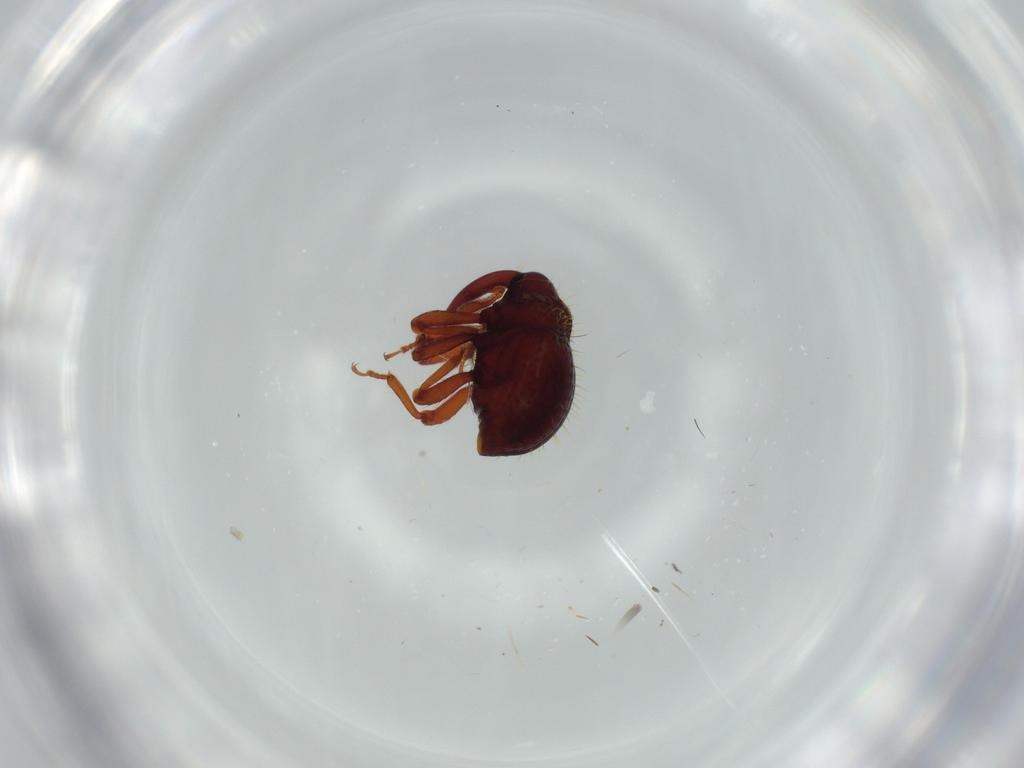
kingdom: Animalia
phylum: Arthropoda
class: Insecta
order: Coleoptera
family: Curculionidae
